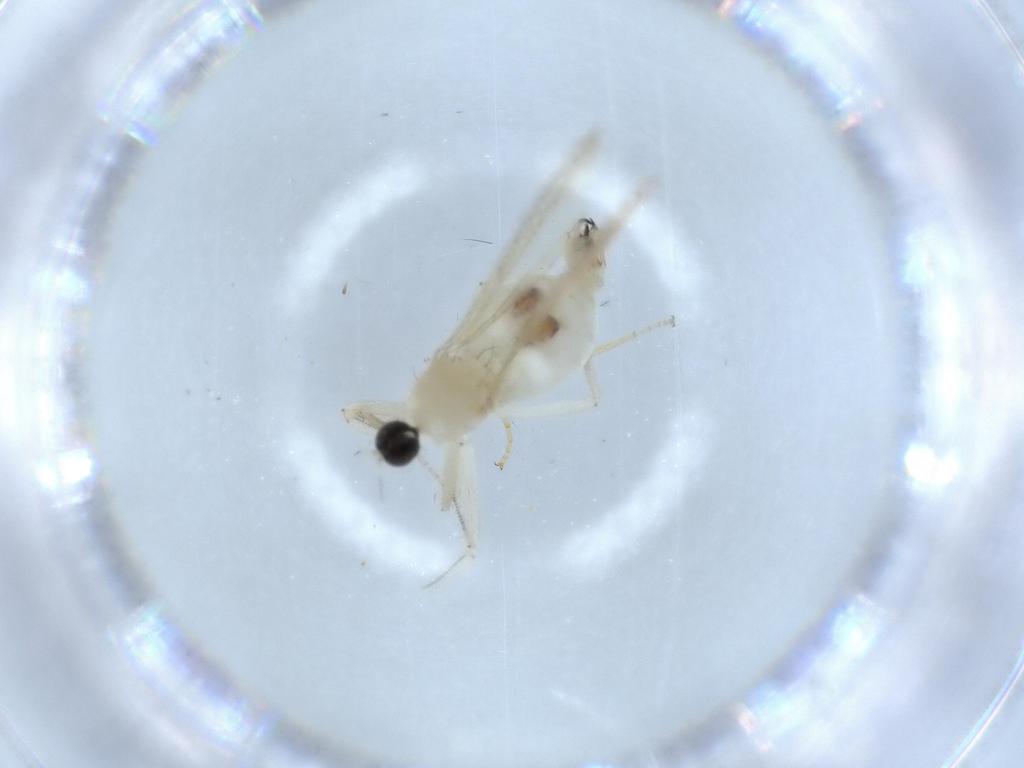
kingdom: Animalia
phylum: Arthropoda
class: Insecta
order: Diptera
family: Hybotidae
